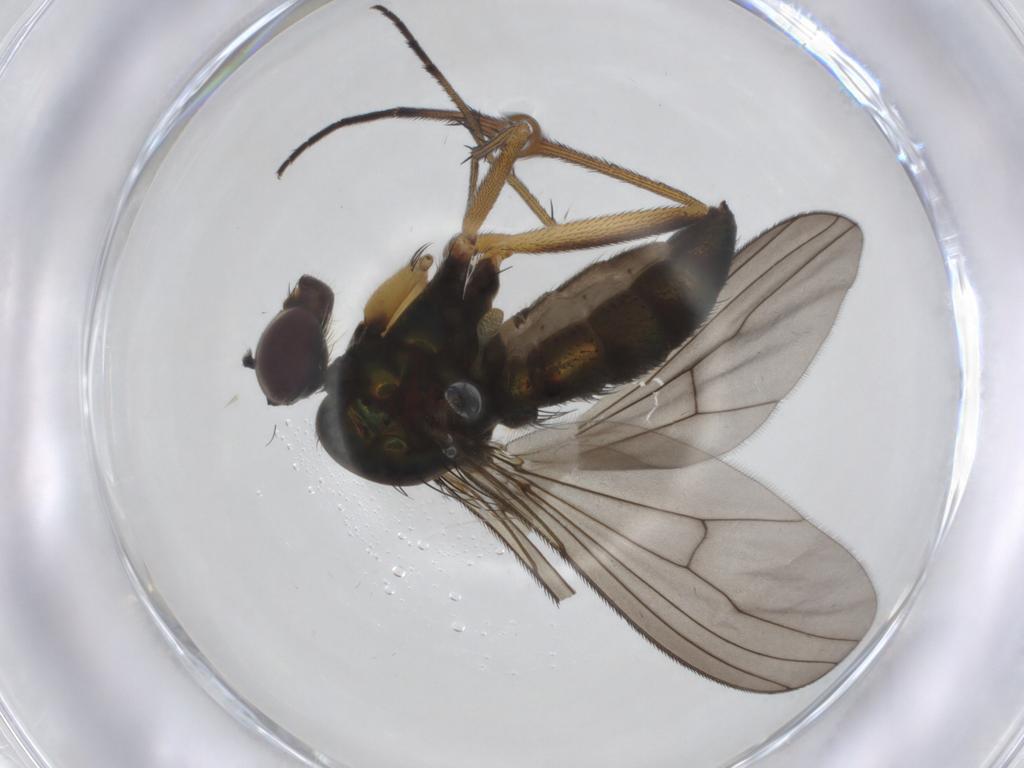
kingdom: Animalia
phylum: Arthropoda
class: Insecta
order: Diptera
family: Dolichopodidae
